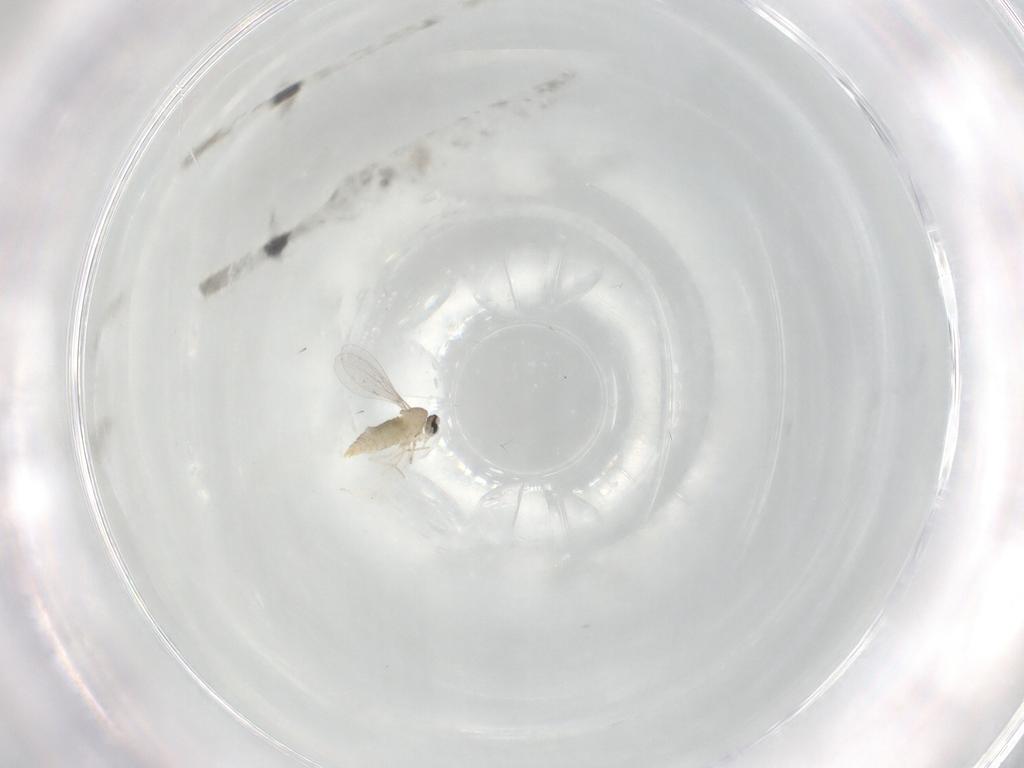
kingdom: Animalia
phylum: Arthropoda
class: Insecta
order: Diptera
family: Cecidomyiidae
